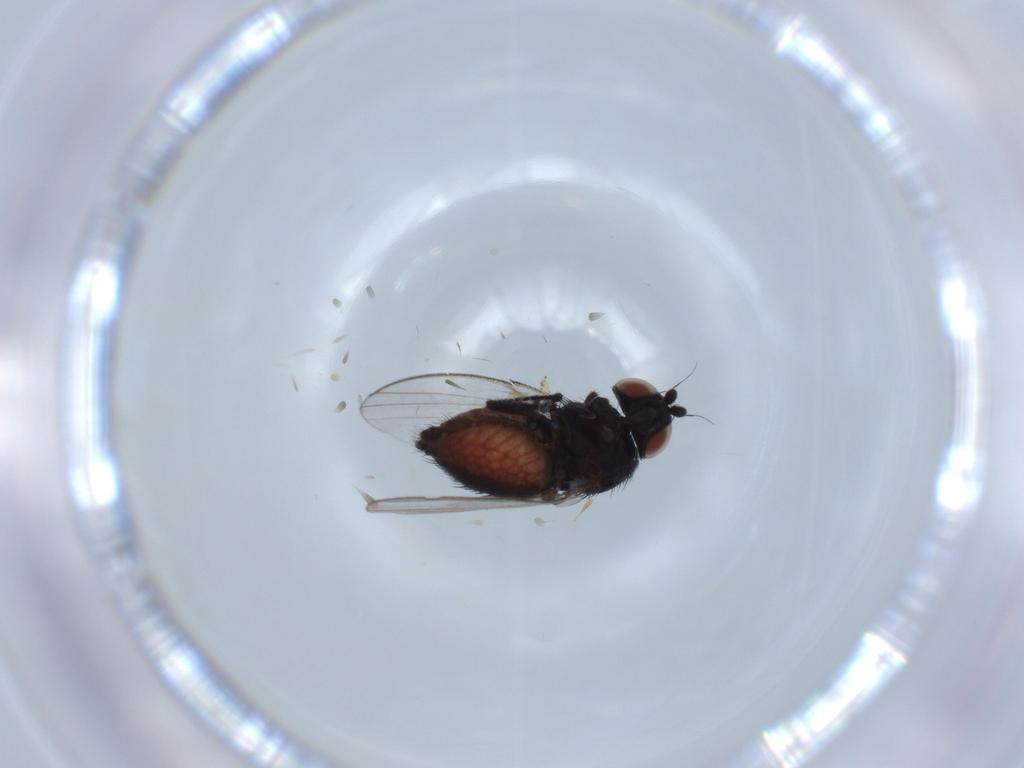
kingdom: Animalia
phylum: Arthropoda
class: Insecta
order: Diptera
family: Milichiidae
